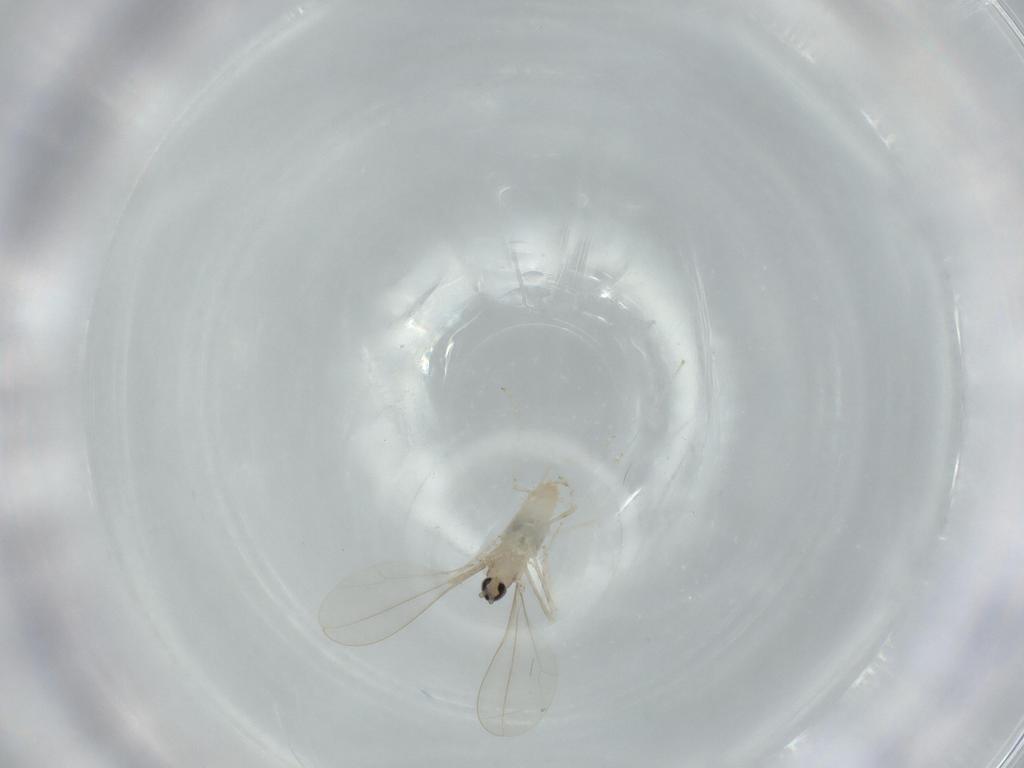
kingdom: Animalia
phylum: Arthropoda
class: Insecta
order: Diptera
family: Cecidomyiidae
